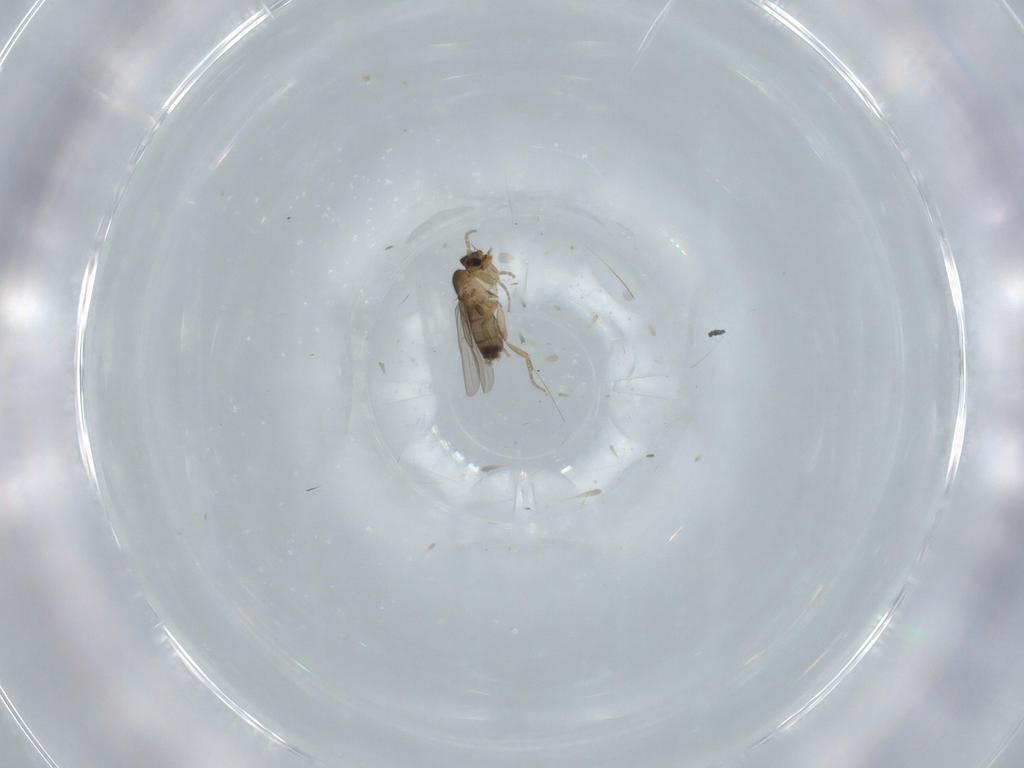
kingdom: Animalia
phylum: Arthropoda
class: Insecta
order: Diptera
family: Phoridae
